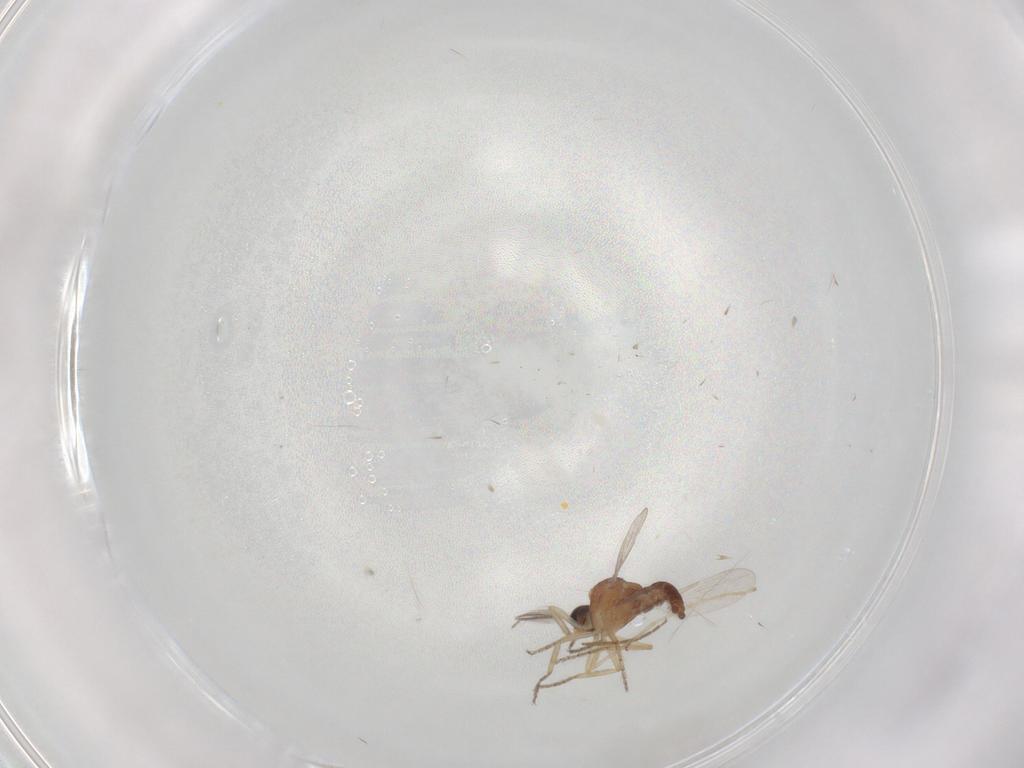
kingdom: Animalia
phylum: Arthropoda
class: Insecta
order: Diptera
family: Ceratopogonidae
